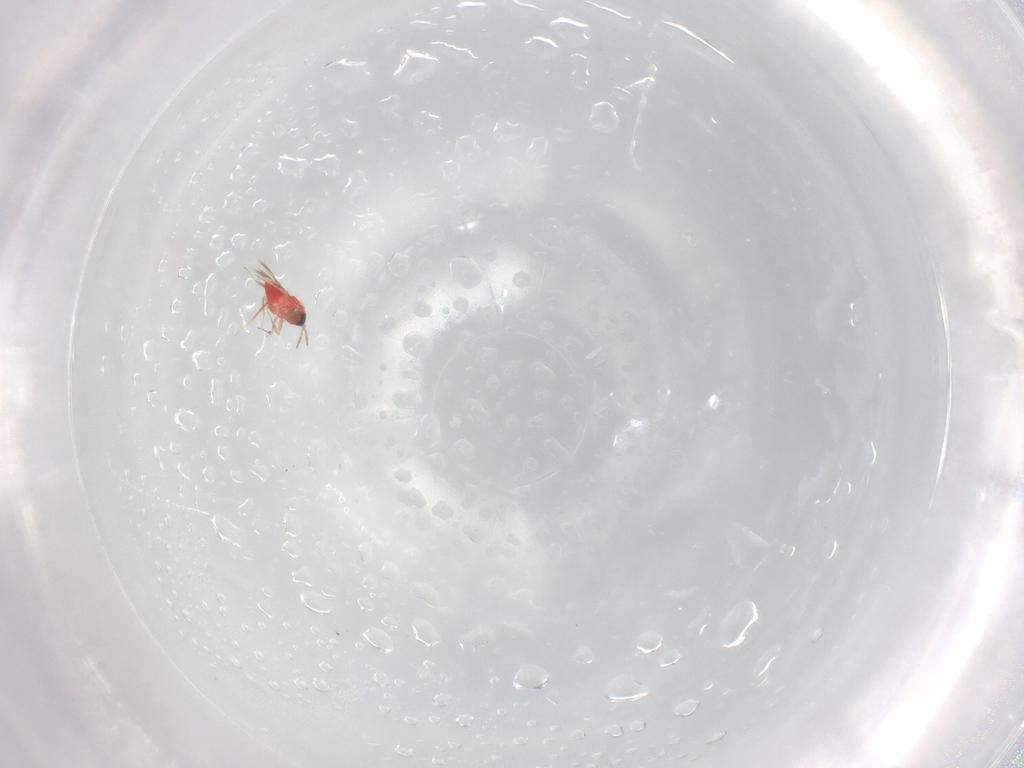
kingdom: Animalia
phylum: Arthropoda
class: Insecta
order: Hymenoptera
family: Trichogrammatidae
